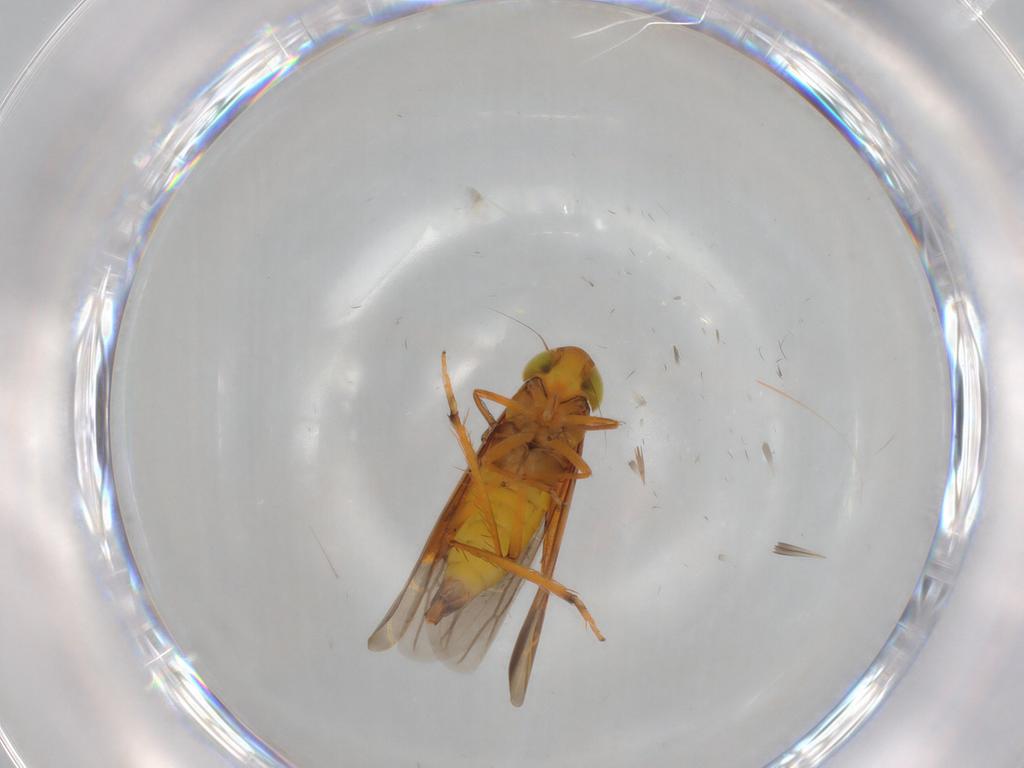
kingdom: Animalia
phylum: Arthropoda
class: Insecta
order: Hemiptera
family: Cicadellidae
